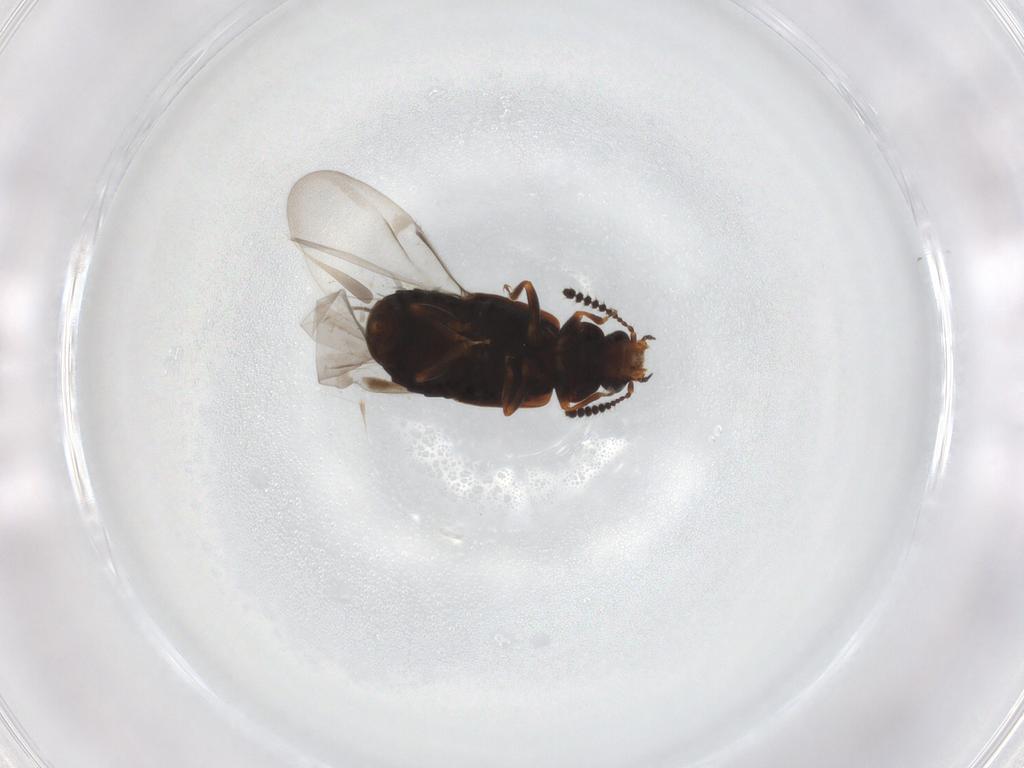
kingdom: Animalia
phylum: Arthropoda
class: Insecta
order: Coleoptera
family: Staphylinidae
